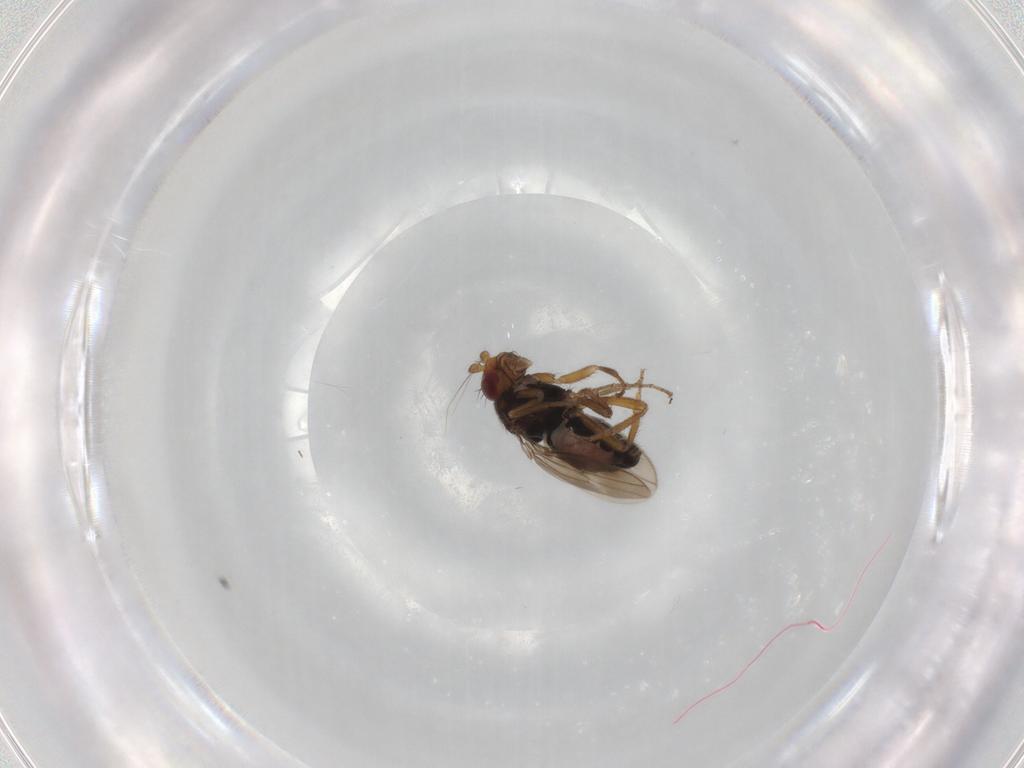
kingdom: Animalia
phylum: Arthropoda
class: Insecta
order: Diptera
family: Sphaeroceridae
